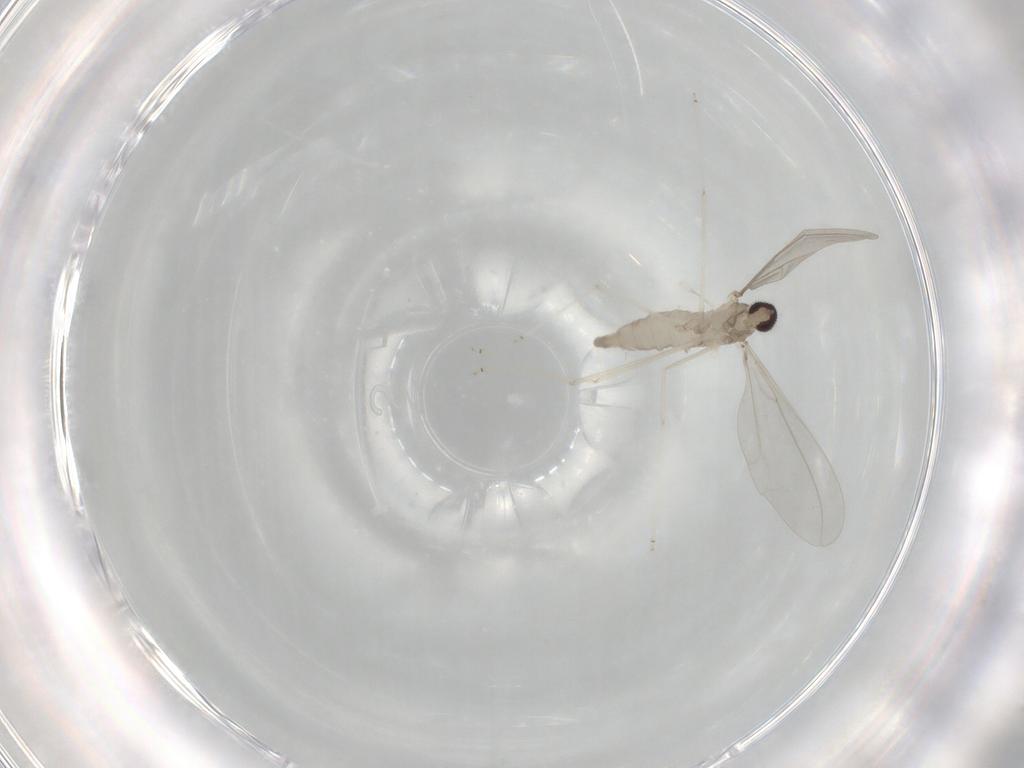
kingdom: Animalia
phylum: Arthropoda
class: Insecta
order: Diptera
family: Cecidomyiidae
